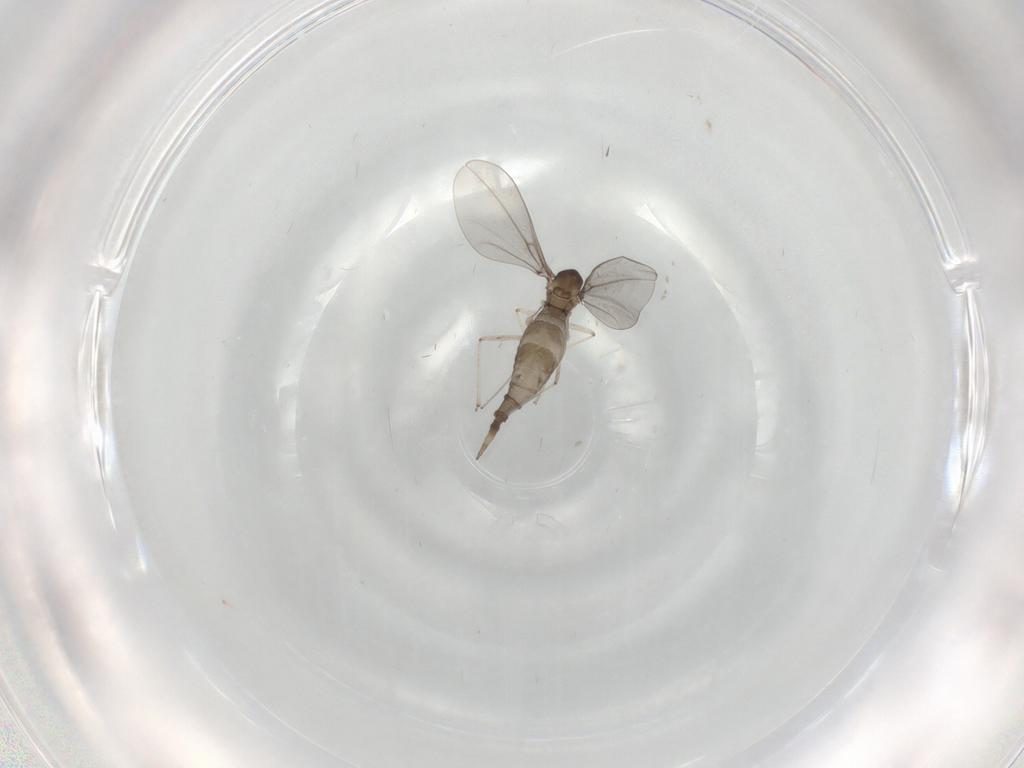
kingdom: Animalia
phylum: Arthropoda
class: Insecta
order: Diptera
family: Cecidomyiidae
